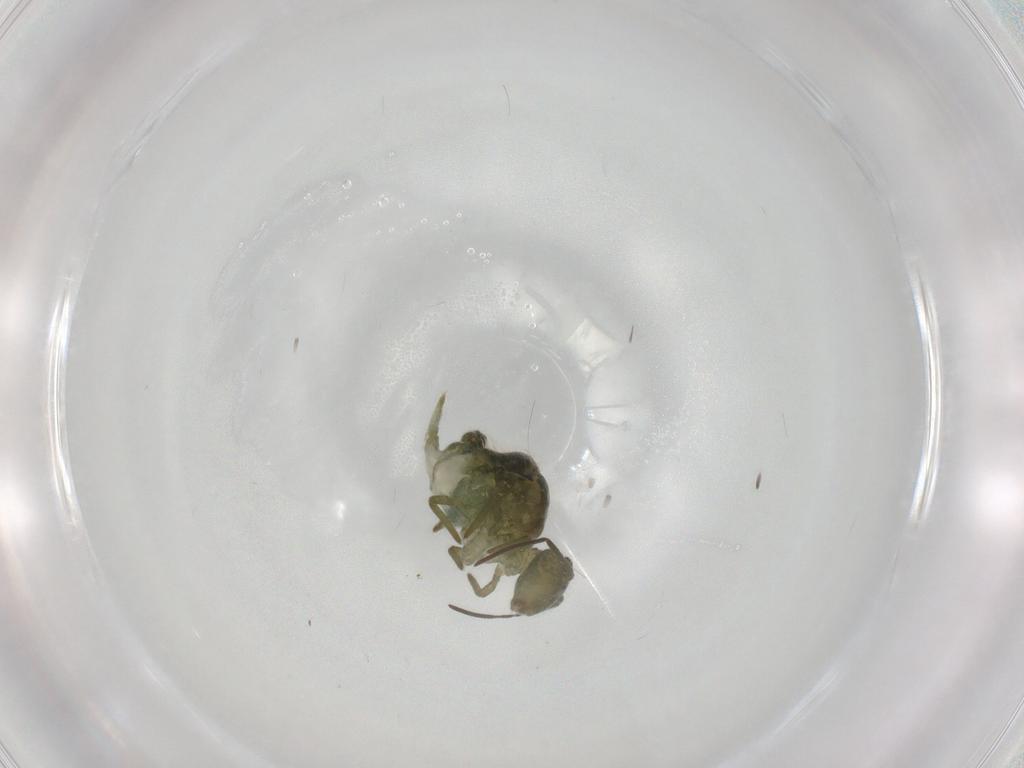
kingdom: Animalia
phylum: Arthropoda
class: Collembola
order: Symphypleona
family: Sminthuridae
